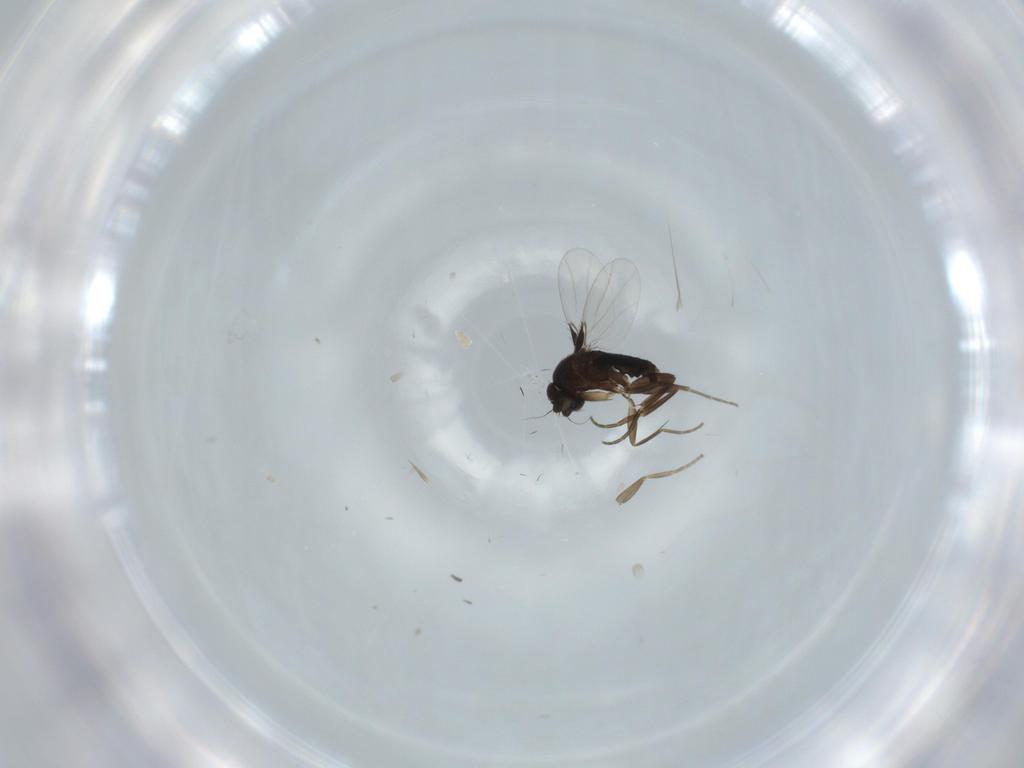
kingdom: Animalia
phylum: Arthropoda
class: Insecta
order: Diptera
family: Phoridae
